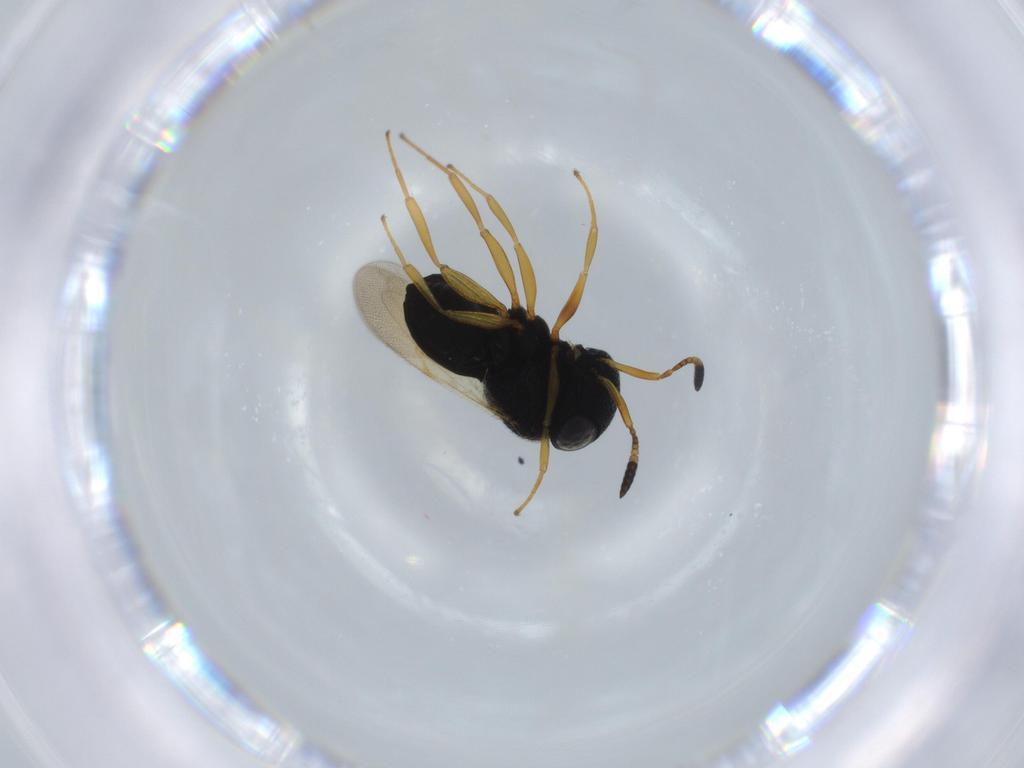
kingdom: Animalia
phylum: Arthropoda
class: Insecta
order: Hymenoptera
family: Scelionidae
